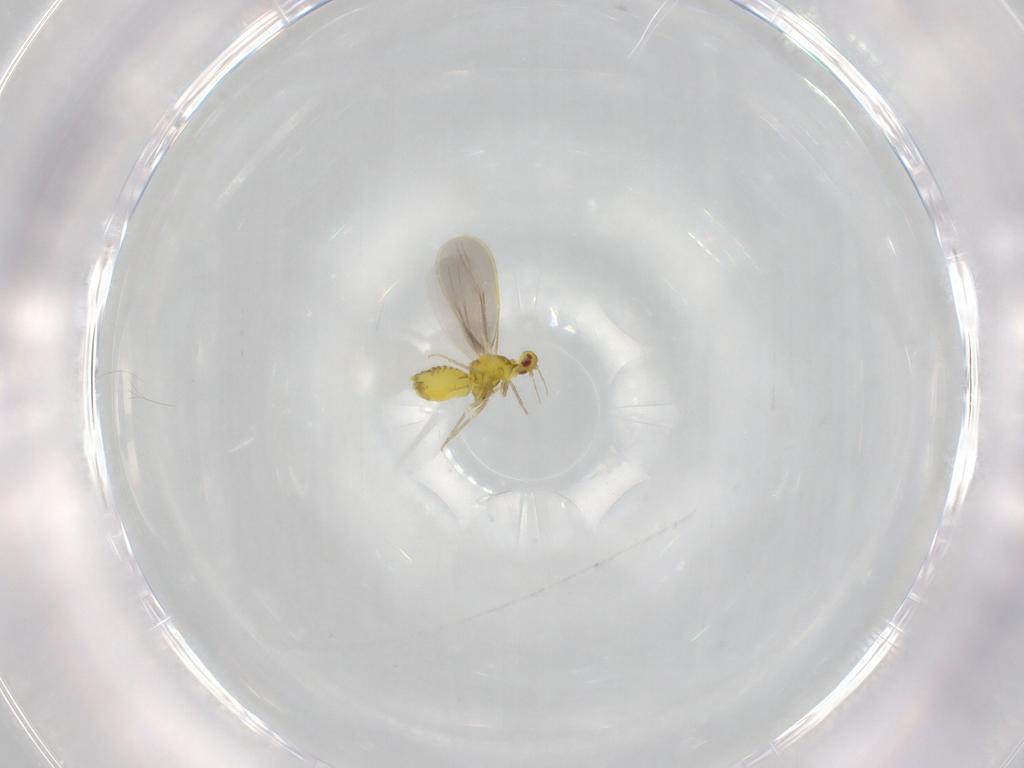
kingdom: Animalia
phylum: Arthropoda
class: Insecta
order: Hemiptera
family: Aleyrodidae
